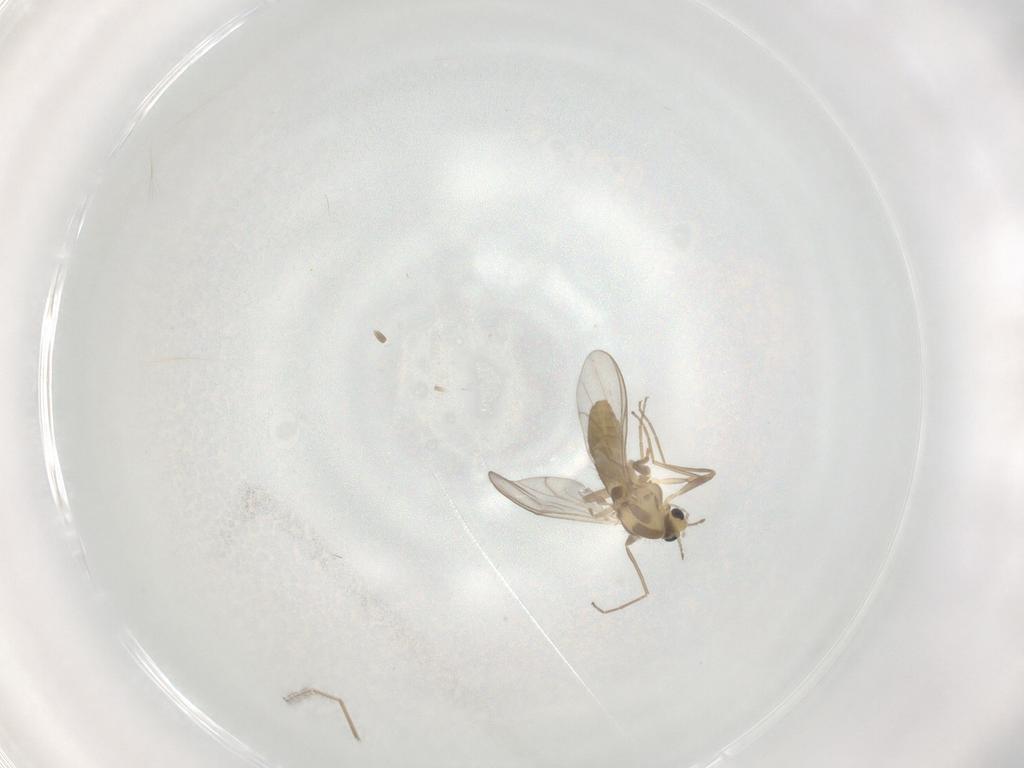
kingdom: Animalia
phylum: Arthropoda
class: Insecta
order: Diptera
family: Chironomidae
